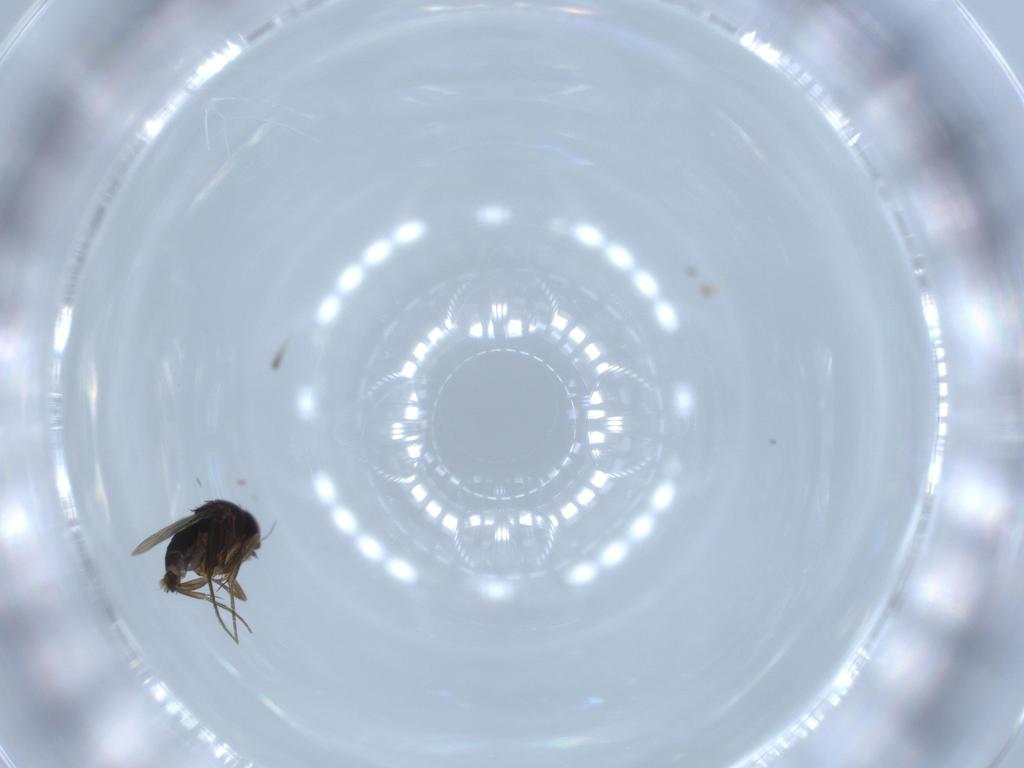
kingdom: Animalia
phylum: Arthropoda
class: Insecta
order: Diptera
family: Phoridae
